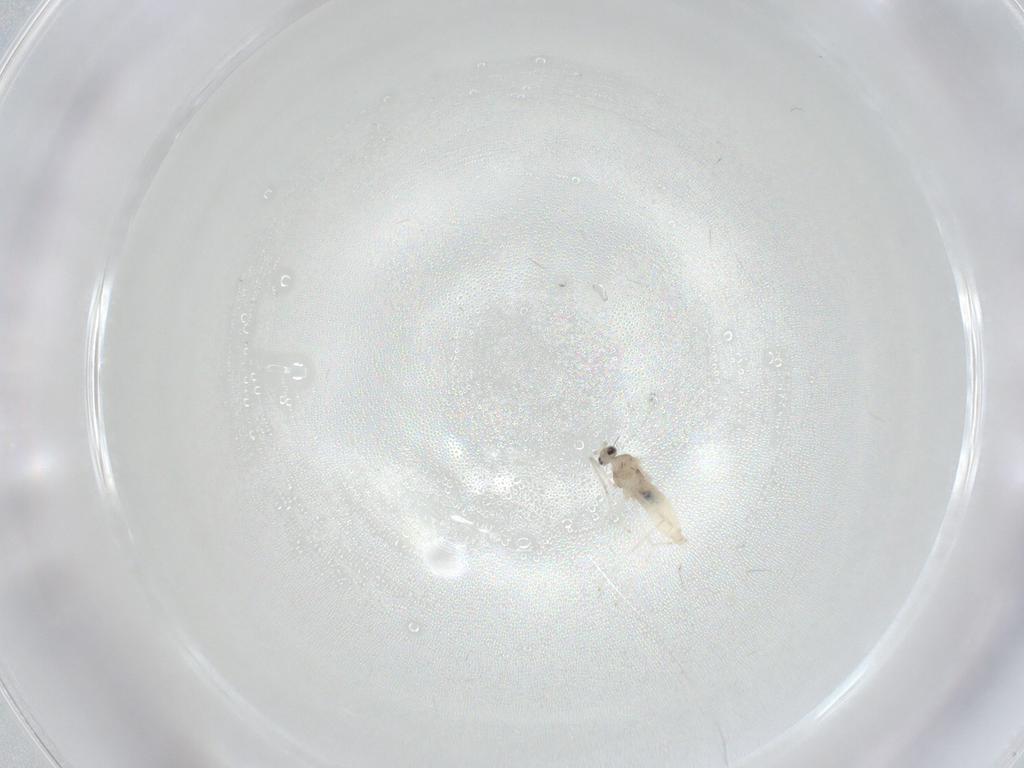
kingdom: Animalia
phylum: Arthropoda
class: Insecta
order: Diptera
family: Cecidomyiidae
